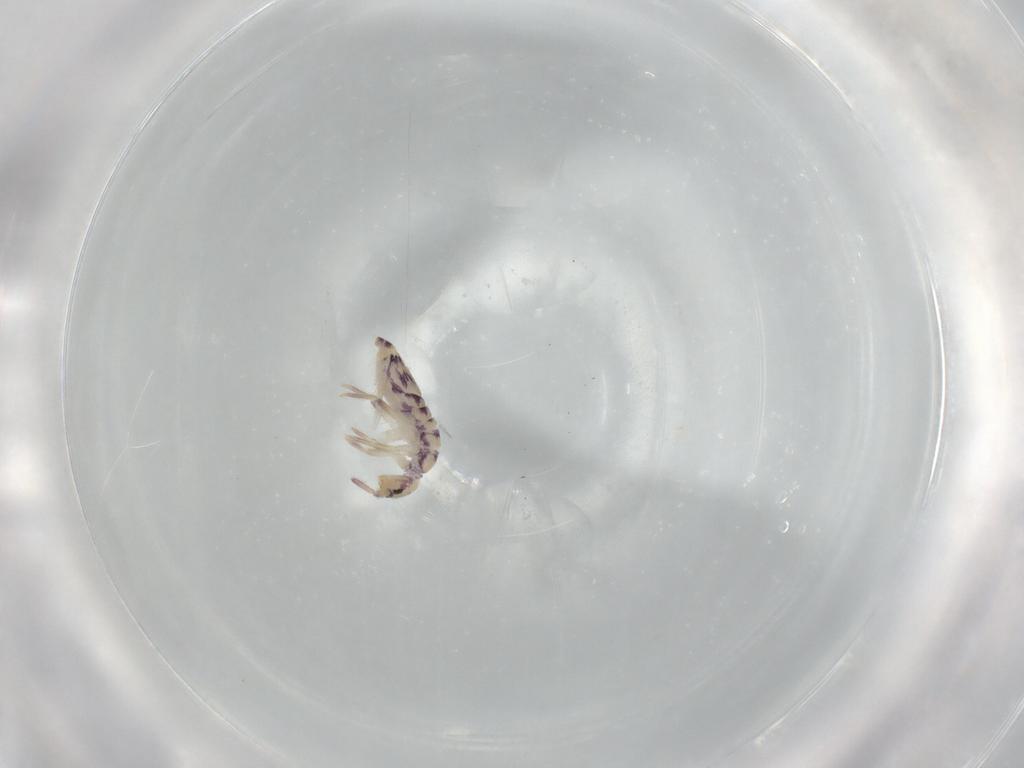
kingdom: Animalia
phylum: Arthropoda
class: Collembola
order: Entomobryomorpha
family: Entomobryidae
